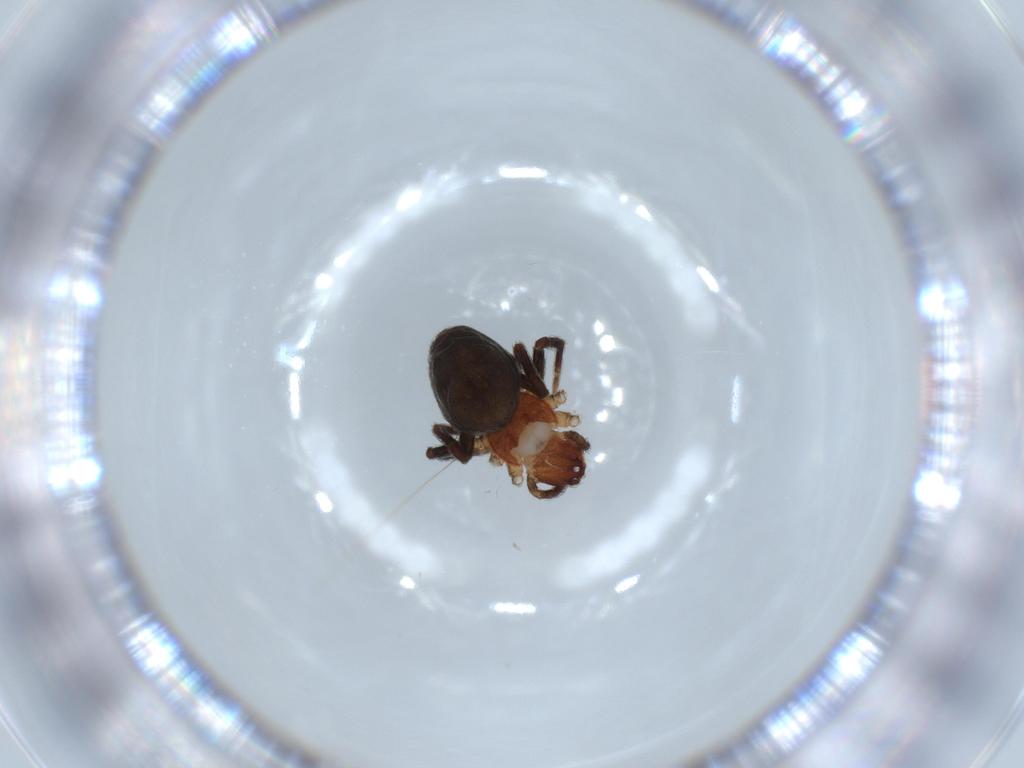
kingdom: Animalia
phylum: Arthropoda
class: Arachnida
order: Araneae
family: Dictynidae
